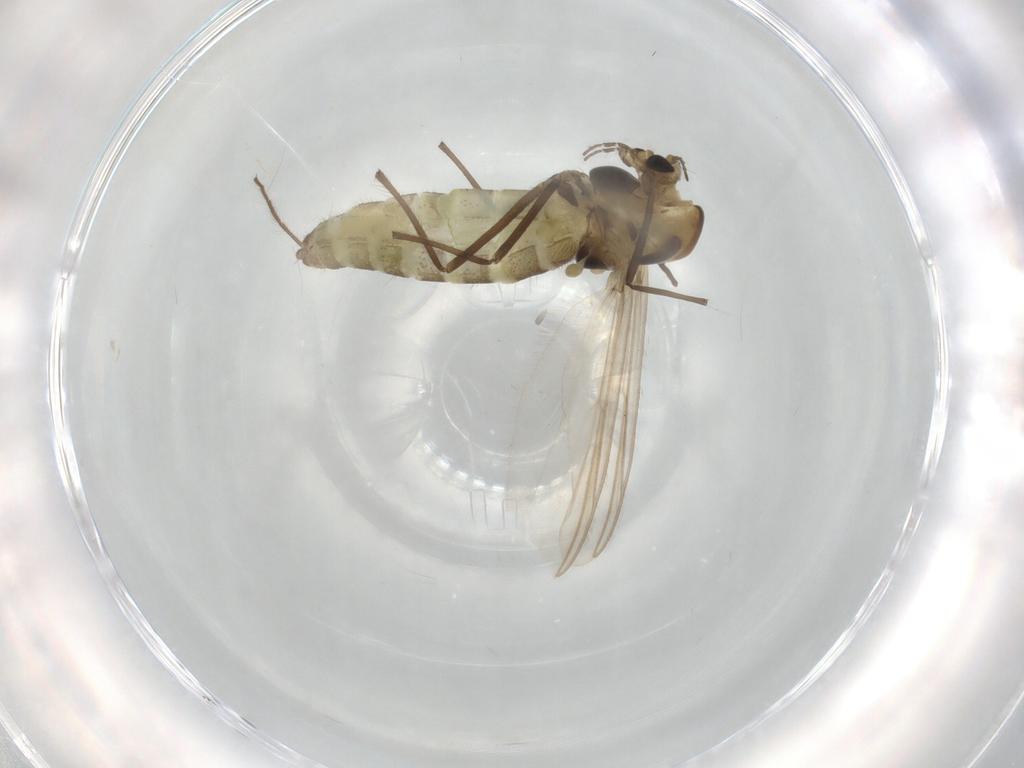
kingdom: Animalia
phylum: Arthropoda
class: Insecta
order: Diptera
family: Chironomidae
